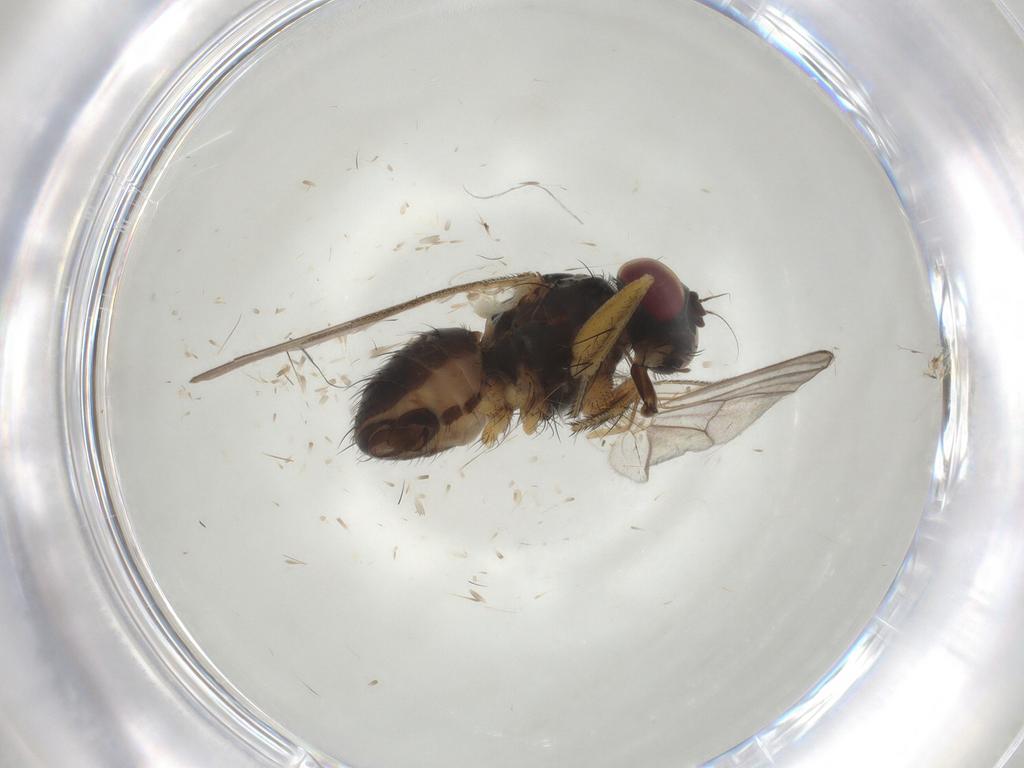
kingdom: Animalia
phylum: Arthropoda
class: Insecta
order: Diptera
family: Muscidae
